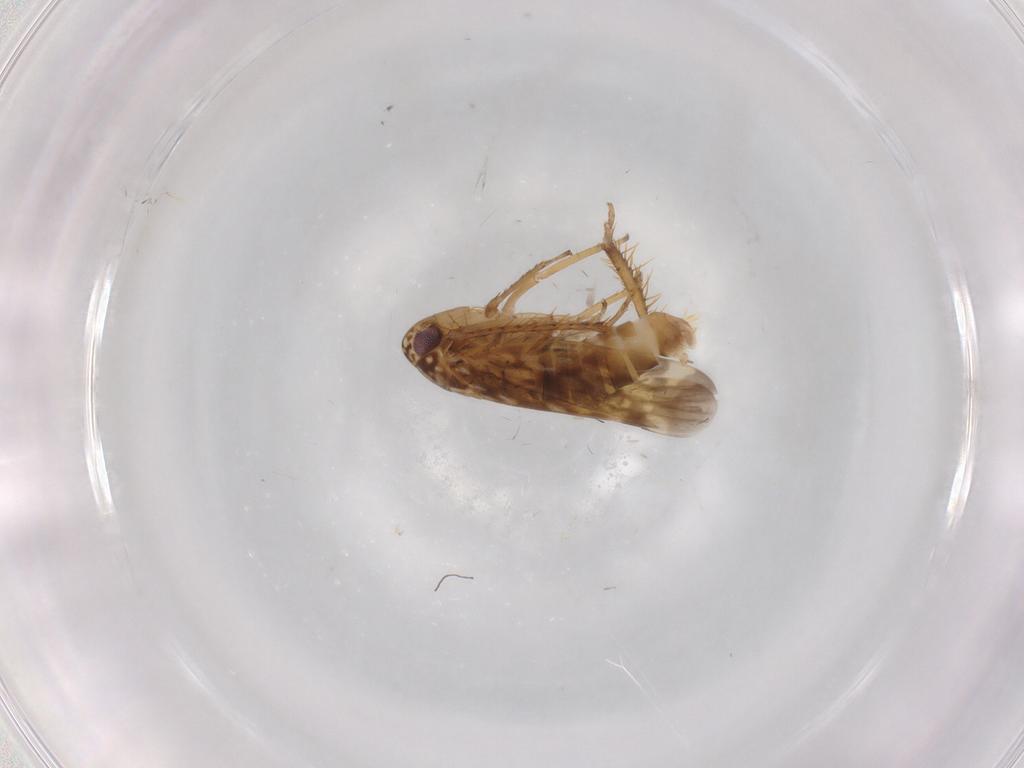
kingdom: Animalia
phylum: Arthropoda
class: Insecta
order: Hemiptera
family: Cicadellidae
